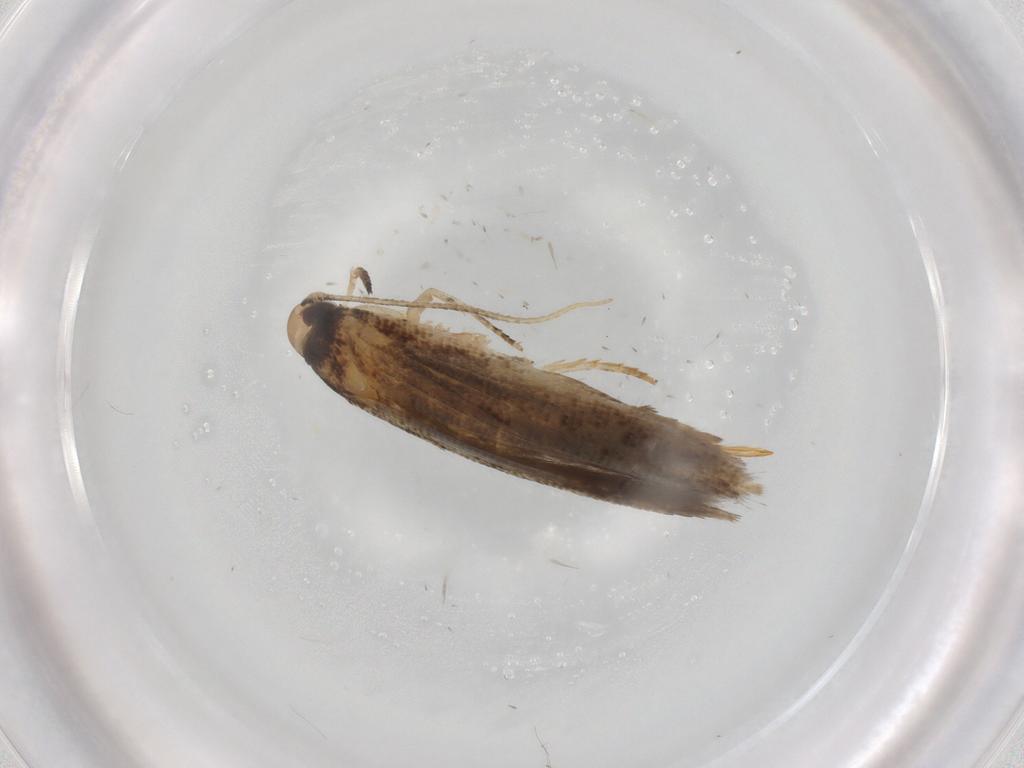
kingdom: Animalia
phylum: Arthropoda
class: Insecta
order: Lepidoptera
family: Cosmopterigidae
